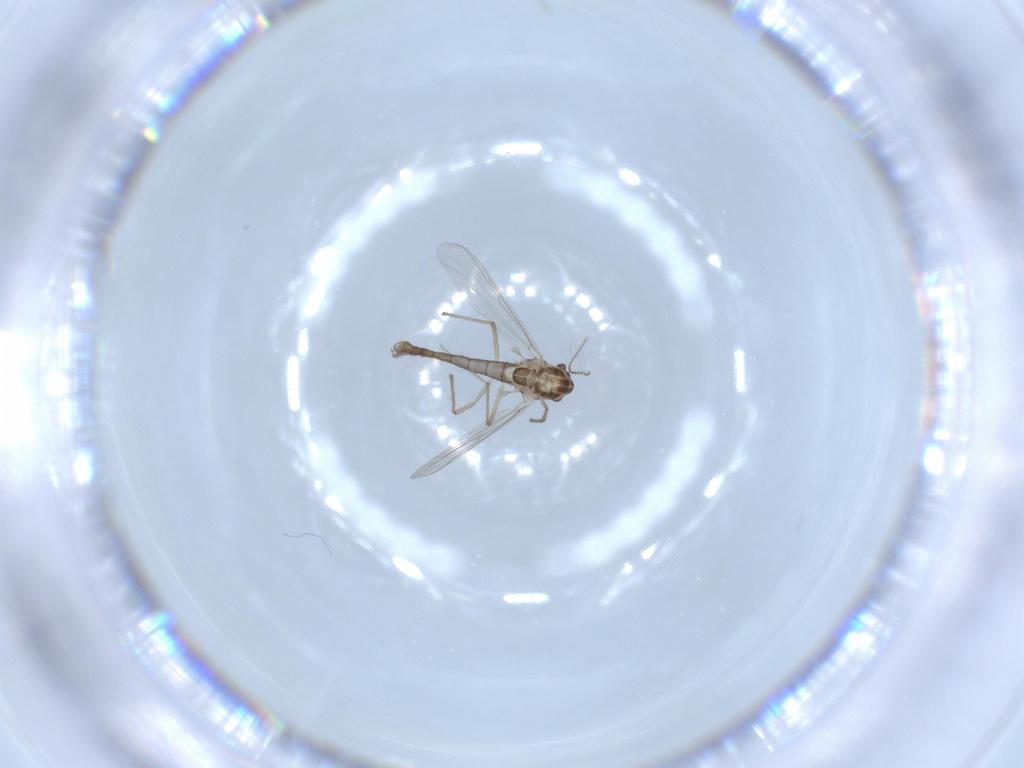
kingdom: Animalia
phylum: Arthropoda
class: Insecta
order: Diptera
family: Chironomidae
